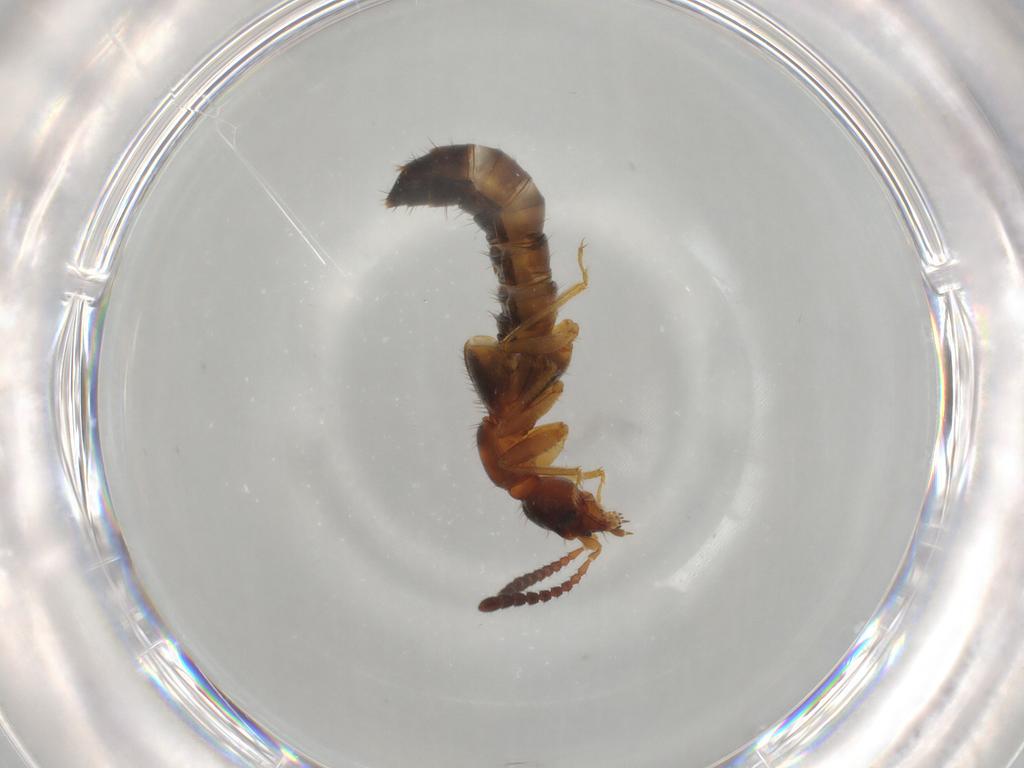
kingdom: Animalia
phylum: Arthropoda
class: Insecta
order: Coleoptera
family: Staphylinidae
